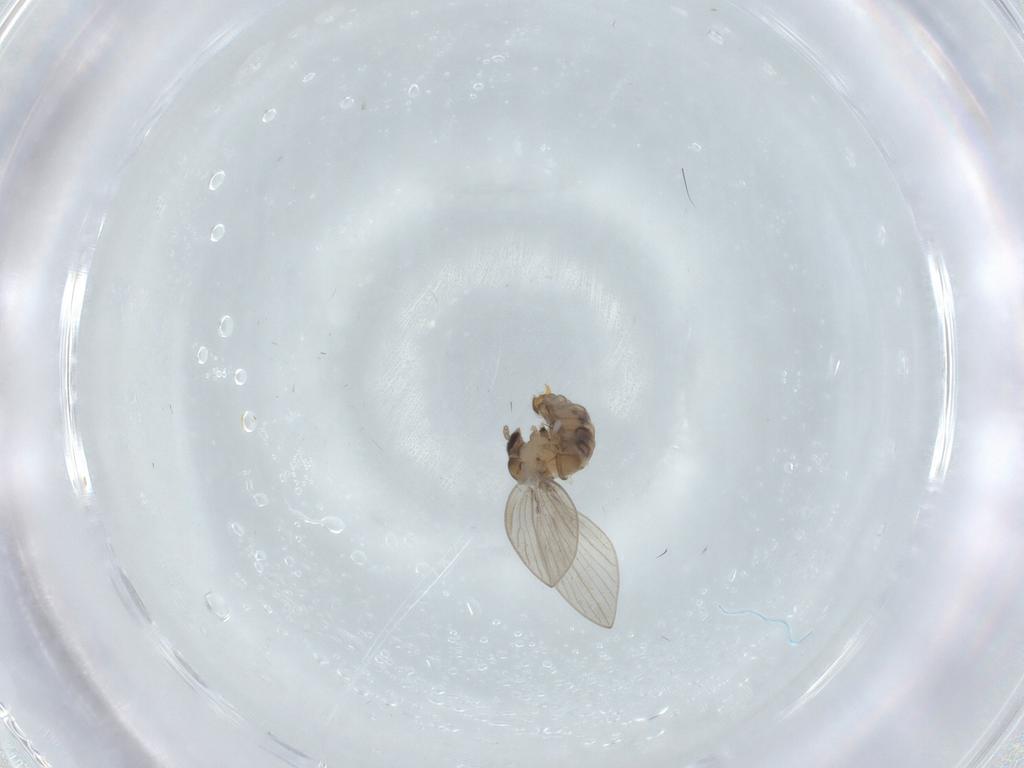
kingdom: Animalia
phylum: Arthropoda
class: Insecta
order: Diptera
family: Psychodidae
